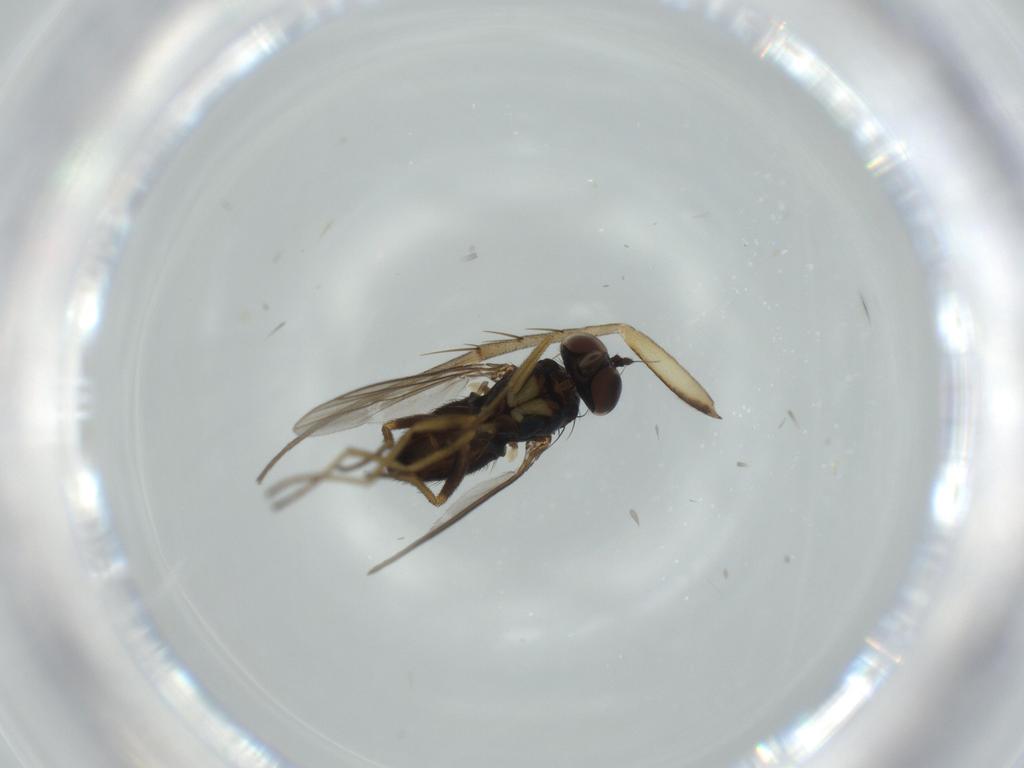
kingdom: Animalia
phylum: Arthropoda
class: Insecta
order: Diptera
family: Dolichopodidae
